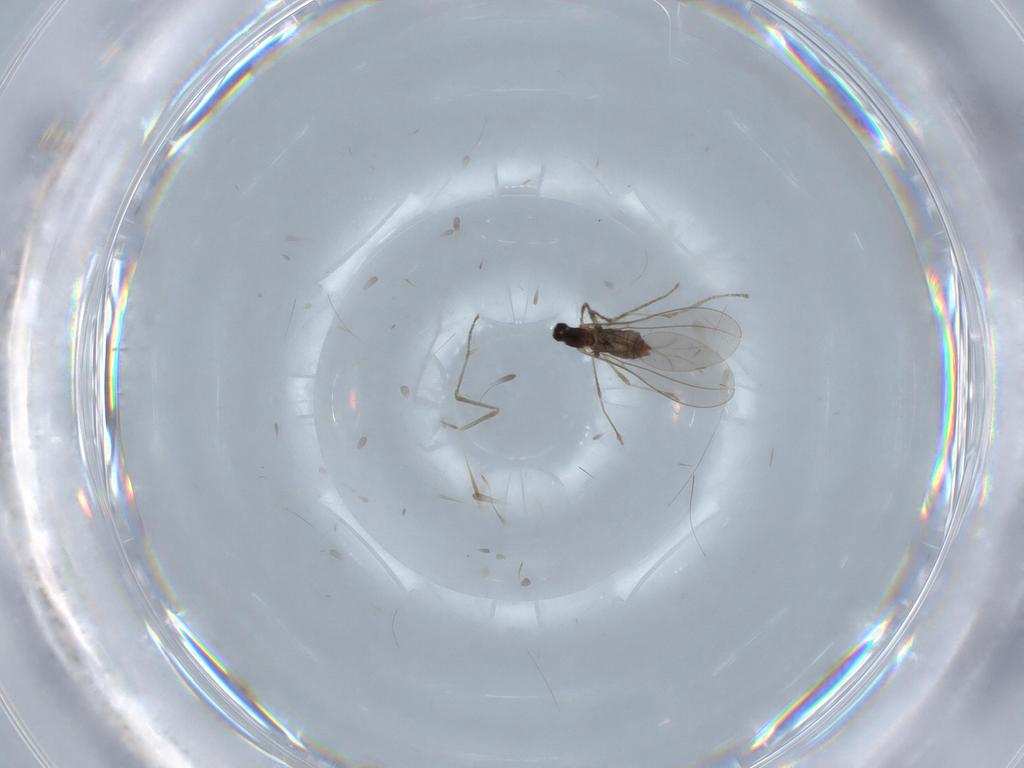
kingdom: Animalia
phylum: Arthropoda
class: Insecta
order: Diptera
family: Cecidomyiidae
